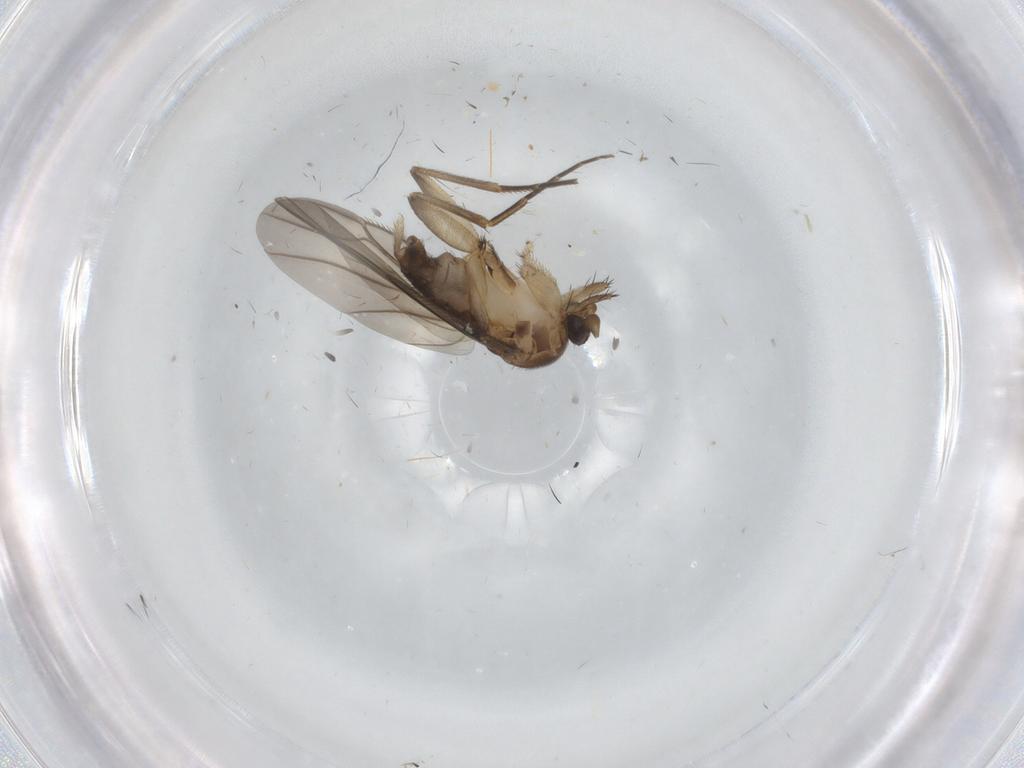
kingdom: Animalia
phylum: Arthropoda
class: Insecta
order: Diptera
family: Phoridae
